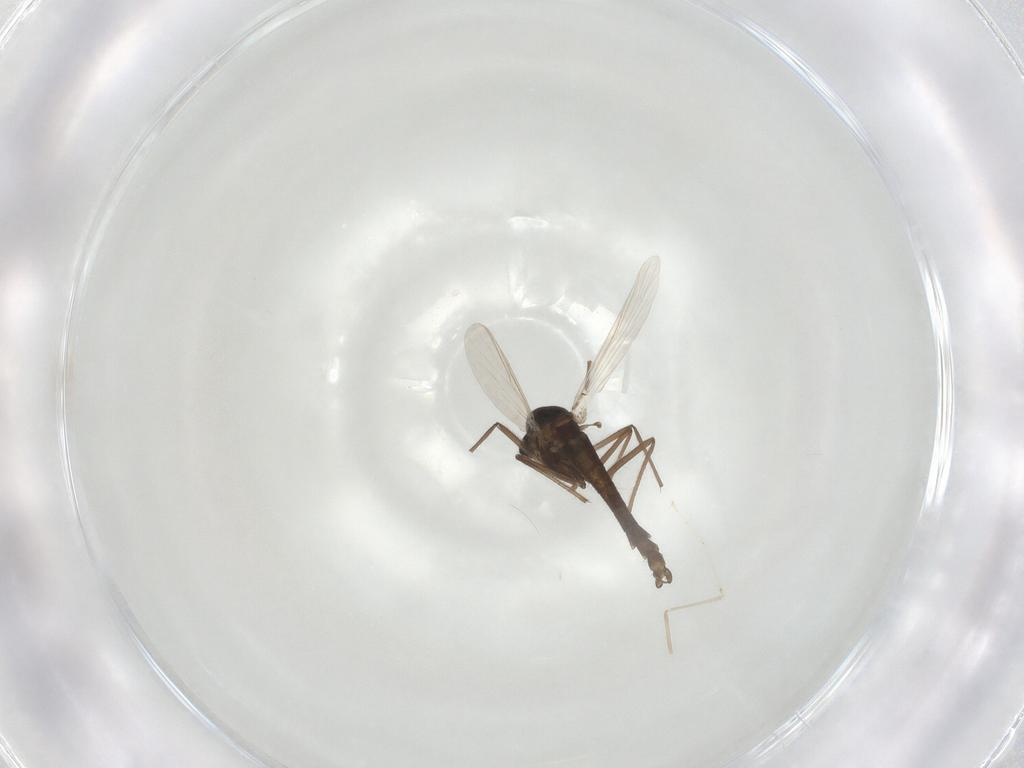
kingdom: Animalia
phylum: Arthropoda
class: Insecta
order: Diptera
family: Chironomidae
